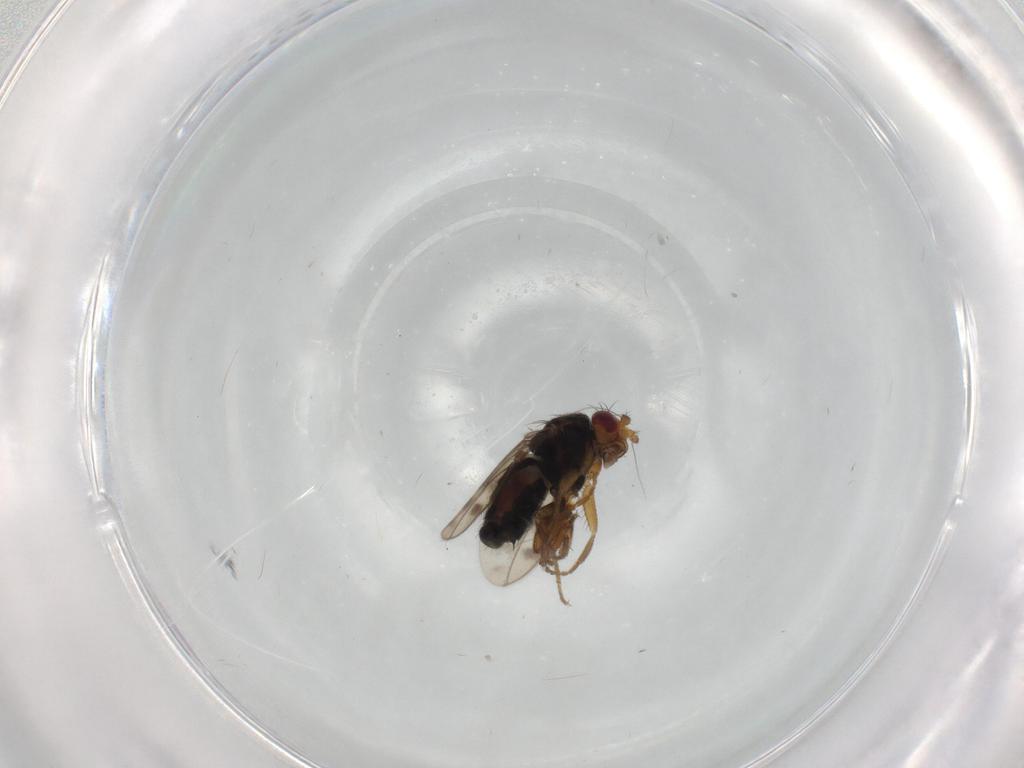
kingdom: Animalia
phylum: Arthropoda
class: Insecta
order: Diptera
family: Sphaeroceridae
